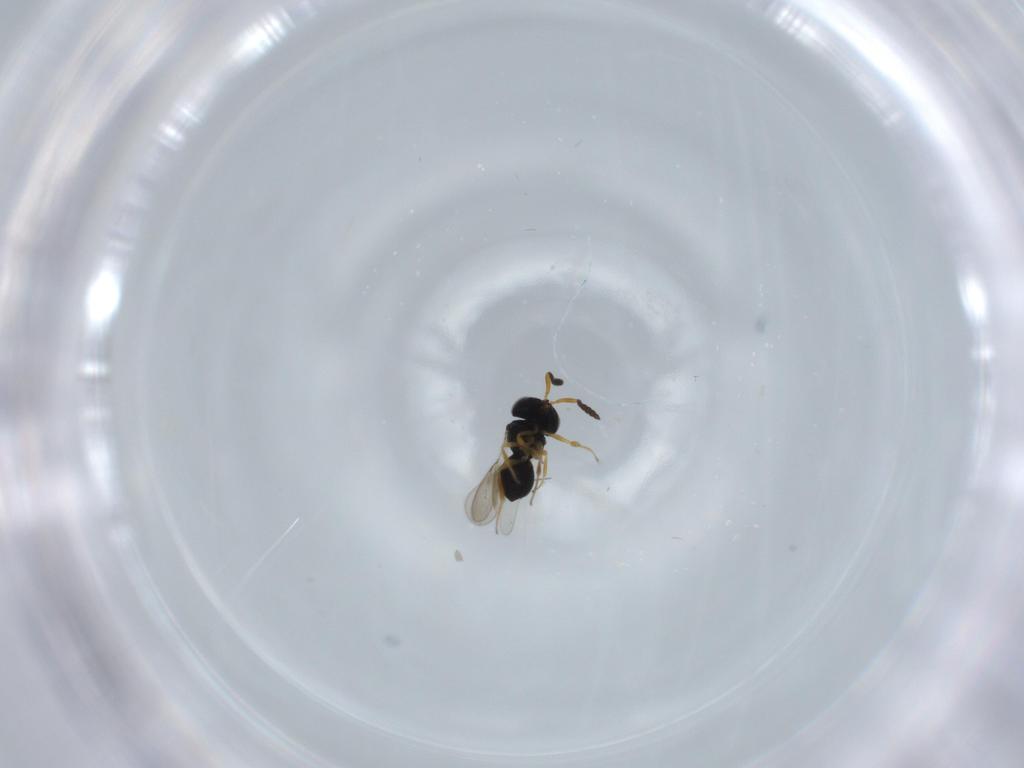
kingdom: Animalia
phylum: Arthropoda
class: Insecta
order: Hymenoptera
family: Scelionidae
